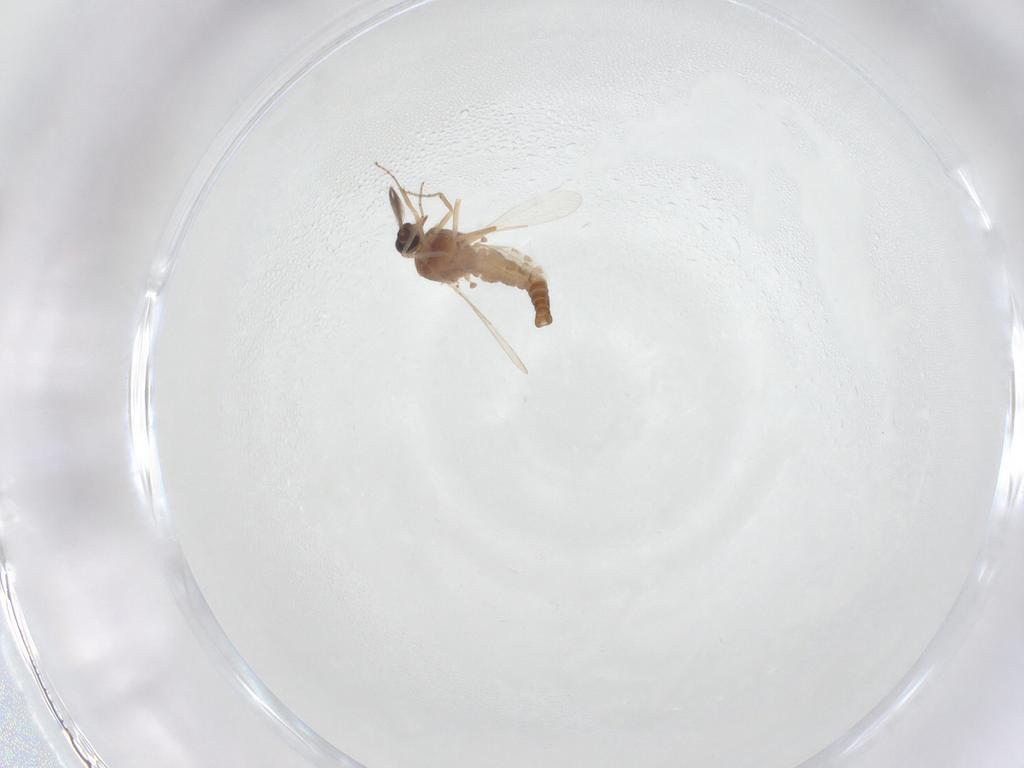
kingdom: Animalia
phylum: Arthropoda
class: Insecta
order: Diptera
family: Ceratopogonidae
